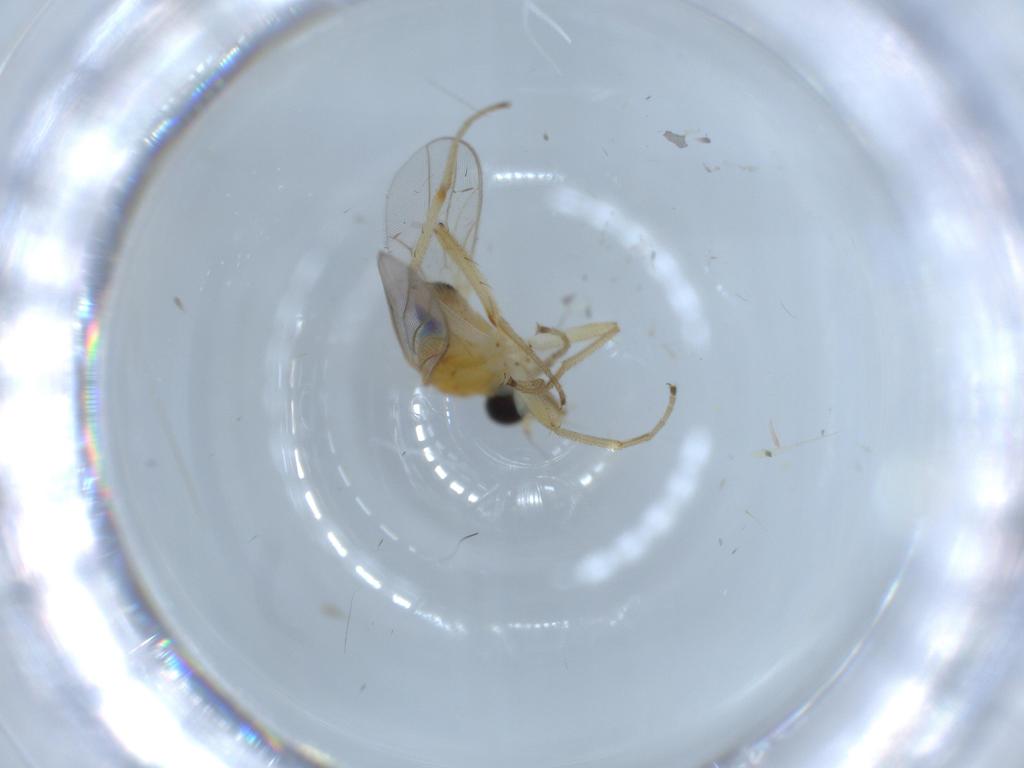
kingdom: Animalia
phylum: Arthropoda
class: Insecta
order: Diptera
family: Hybotidae
